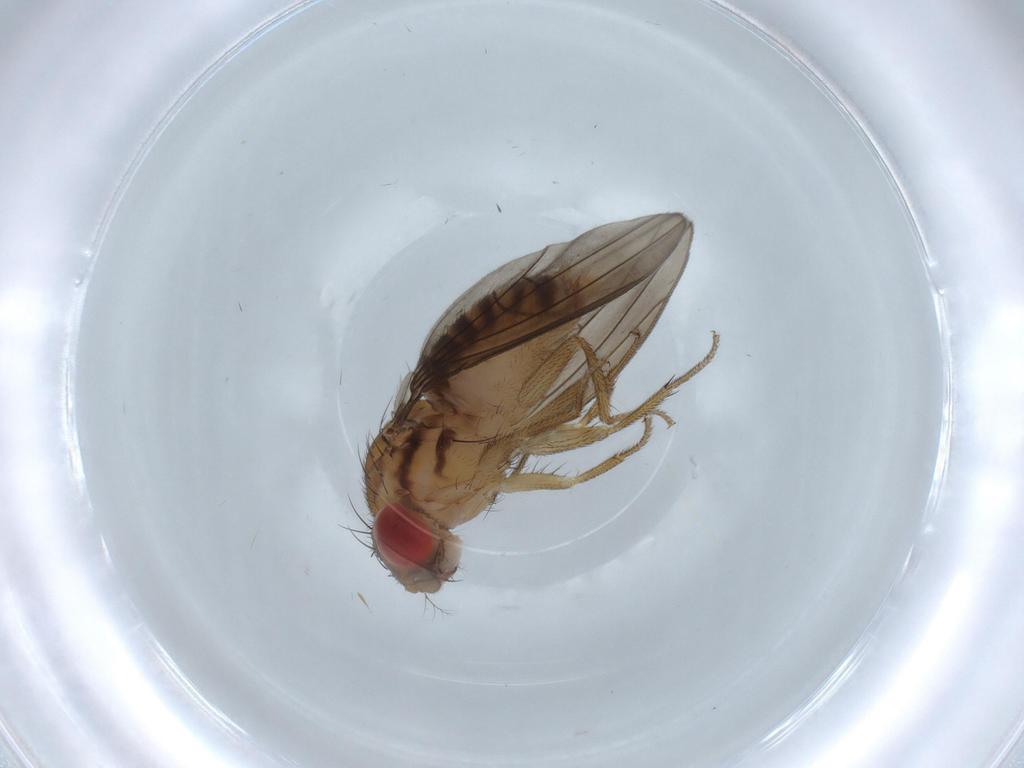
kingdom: Animalia
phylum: Arthropoda
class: Insecta
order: Diptera
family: Drosophilidae
